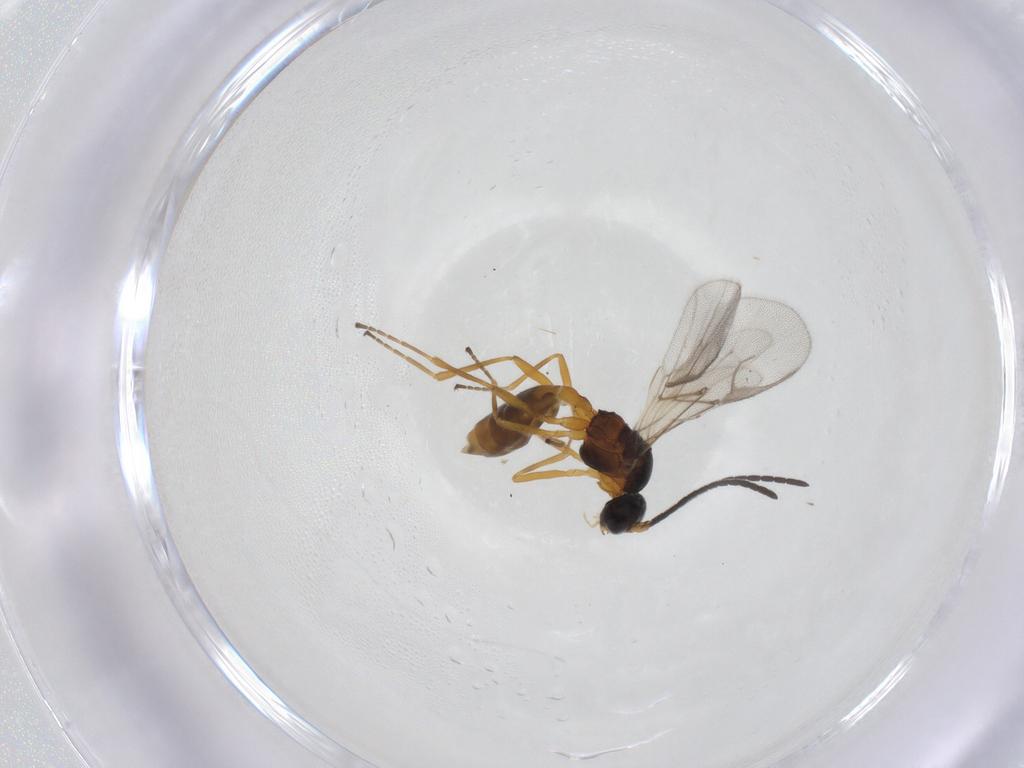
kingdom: Animalia
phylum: Arthropoda
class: Insecta
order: Hymenoptera
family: Braconidae
